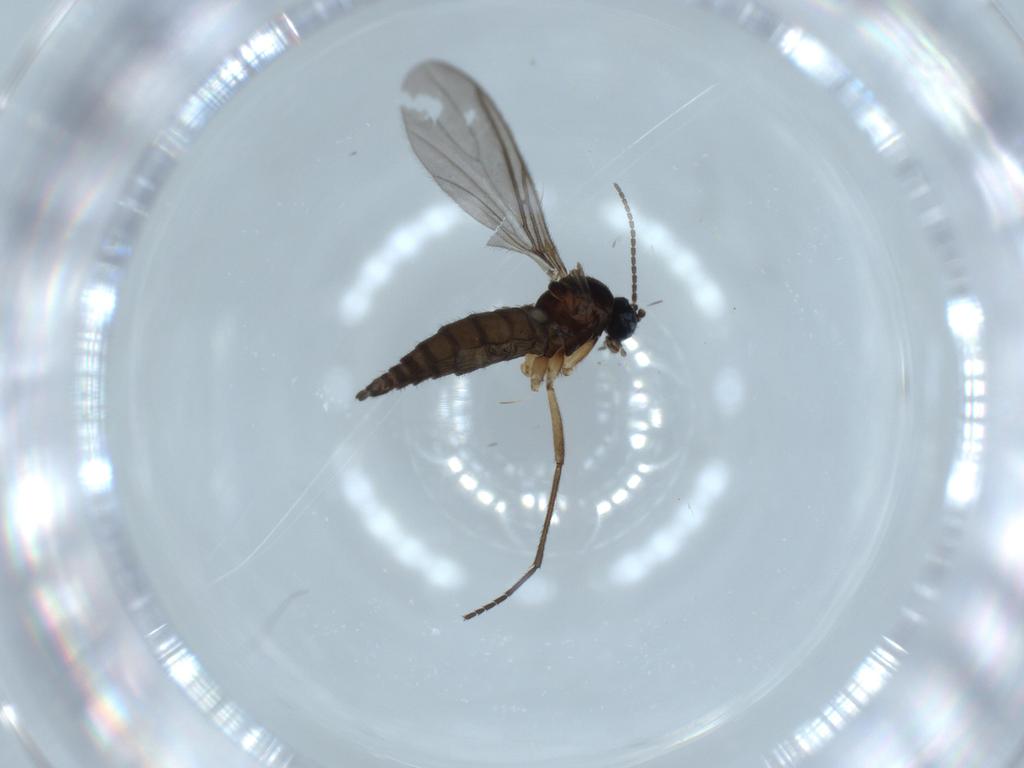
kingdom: Animalia
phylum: Arthropoda
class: Insecta
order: Diptera
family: Sciaridae
